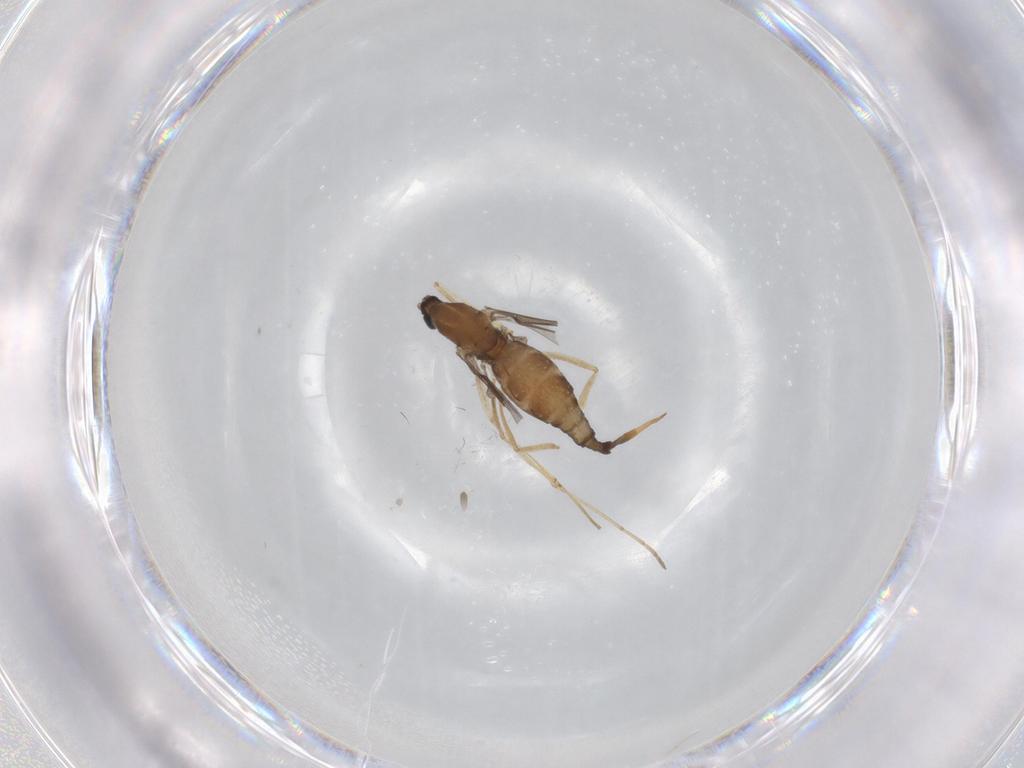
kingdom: Animalia
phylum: Arthropoda
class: Insecta
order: Diptera
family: Cecidomyiidae
